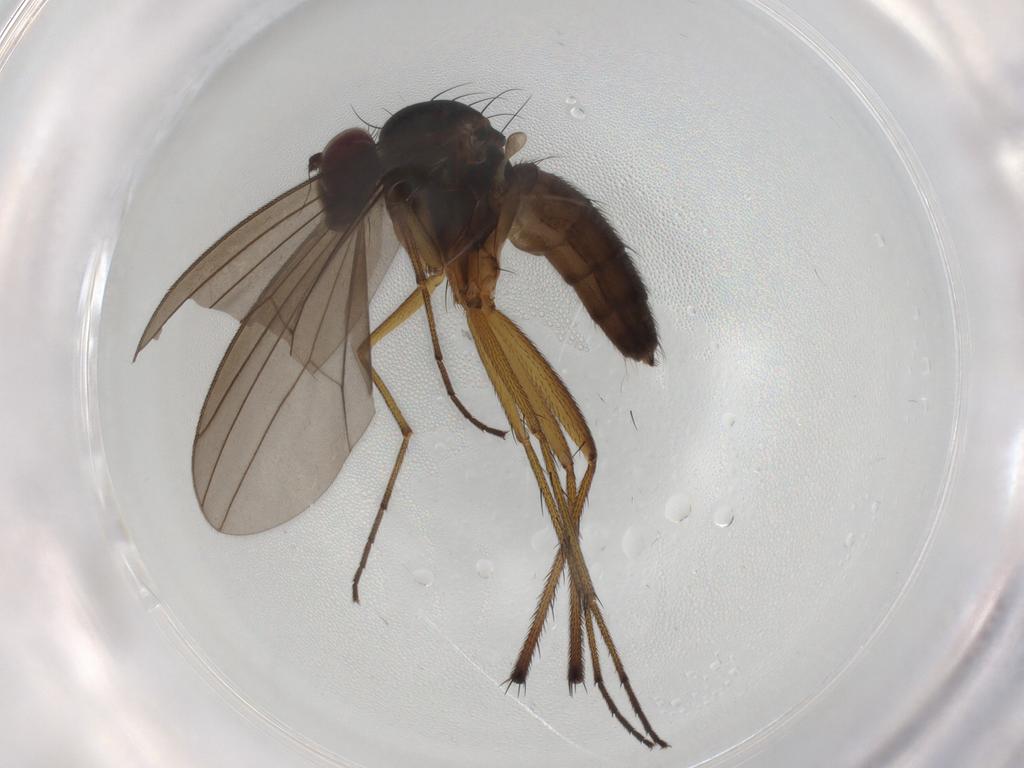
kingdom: Animalia
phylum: Arthropoda
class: Insecta
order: Diptera
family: Dolichopodidae
